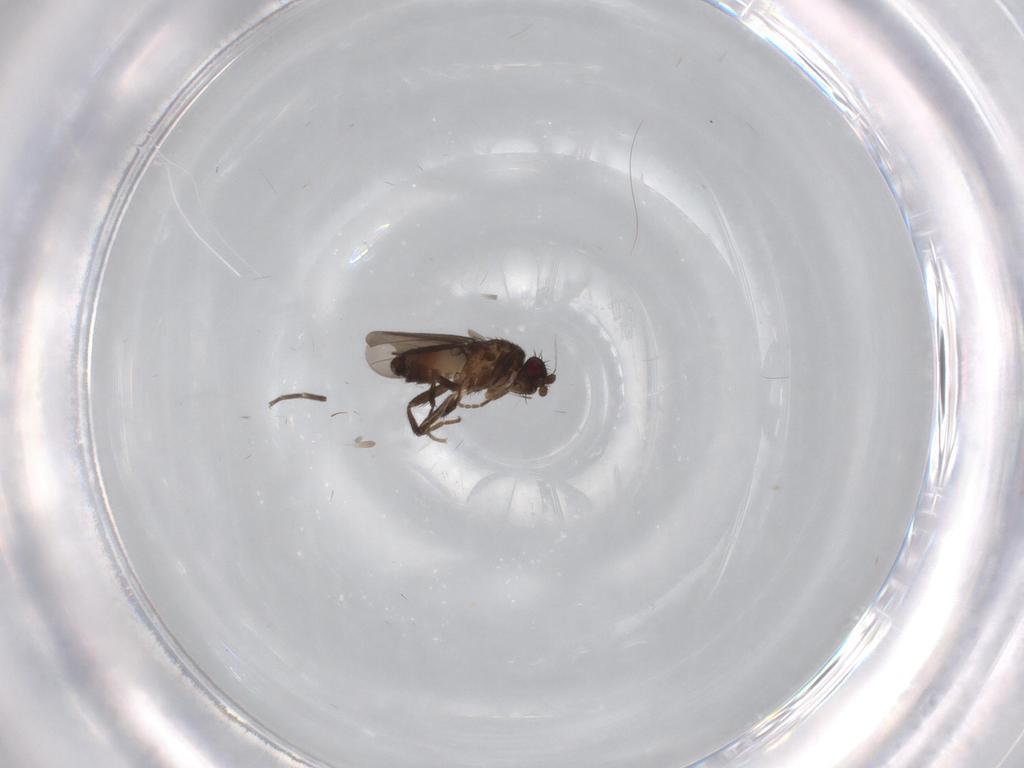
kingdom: Animalia
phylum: Arthropoda
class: Insecta
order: Diptera
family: Sphaeroceridae
